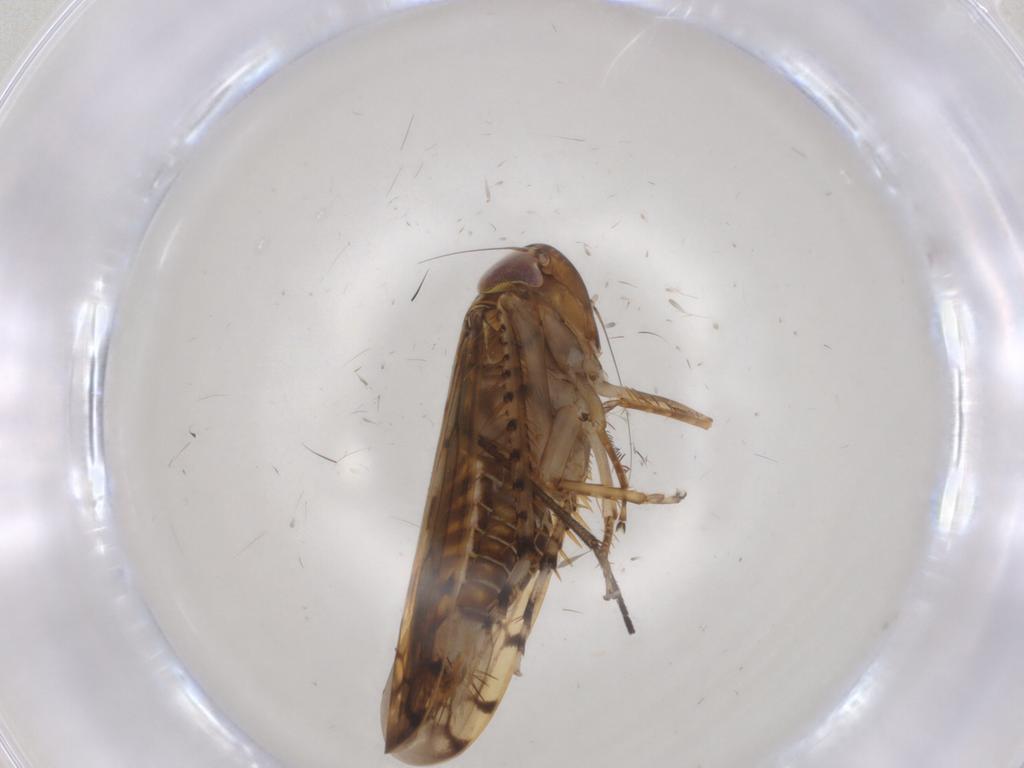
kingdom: Animalia
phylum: Arthropoda
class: Insecta
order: Hemiptera
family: Cicadellidae
